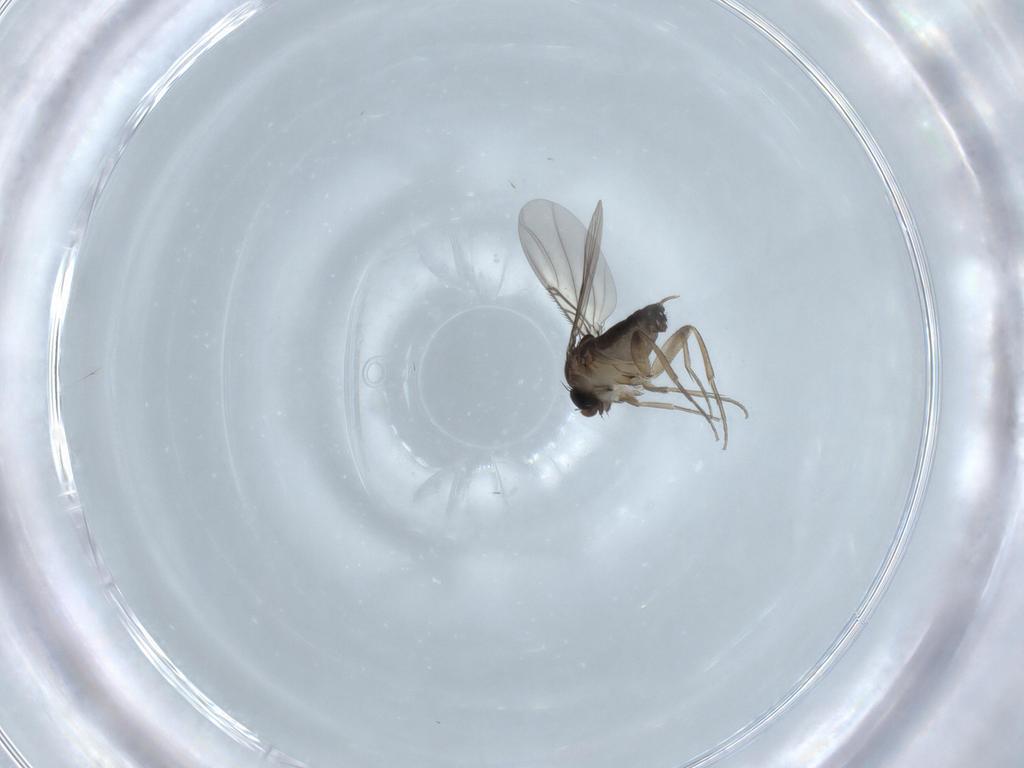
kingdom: Animalia
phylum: Arthropoda
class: Insecta
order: Diptera
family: Phoridae
